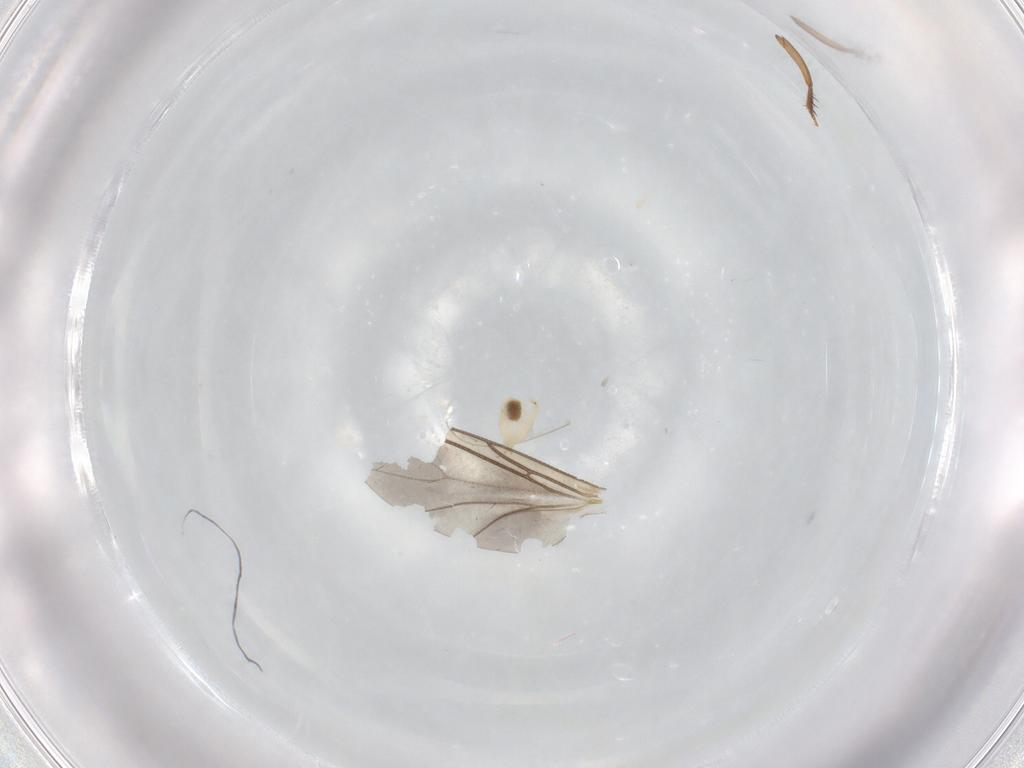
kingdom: Animalia
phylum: Arthropoda
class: Insecta
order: Diptera
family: Cecidomyiidae
